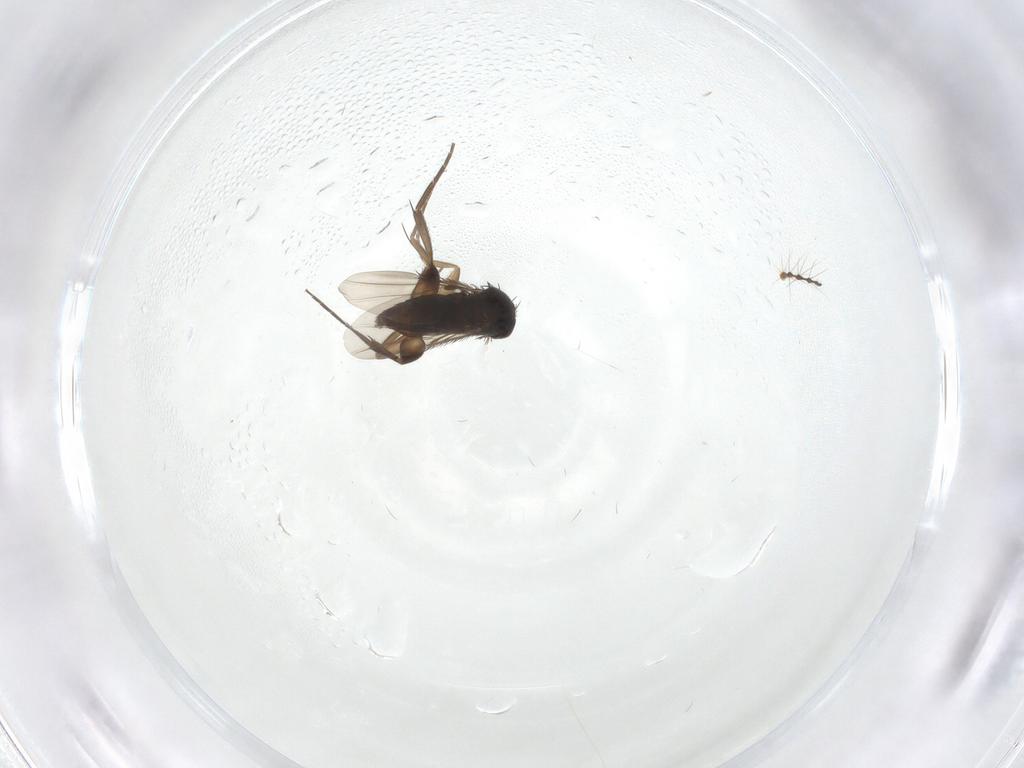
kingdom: Animalia
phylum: Arthropoda
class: Insecta
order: Diptera
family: Phoridae
